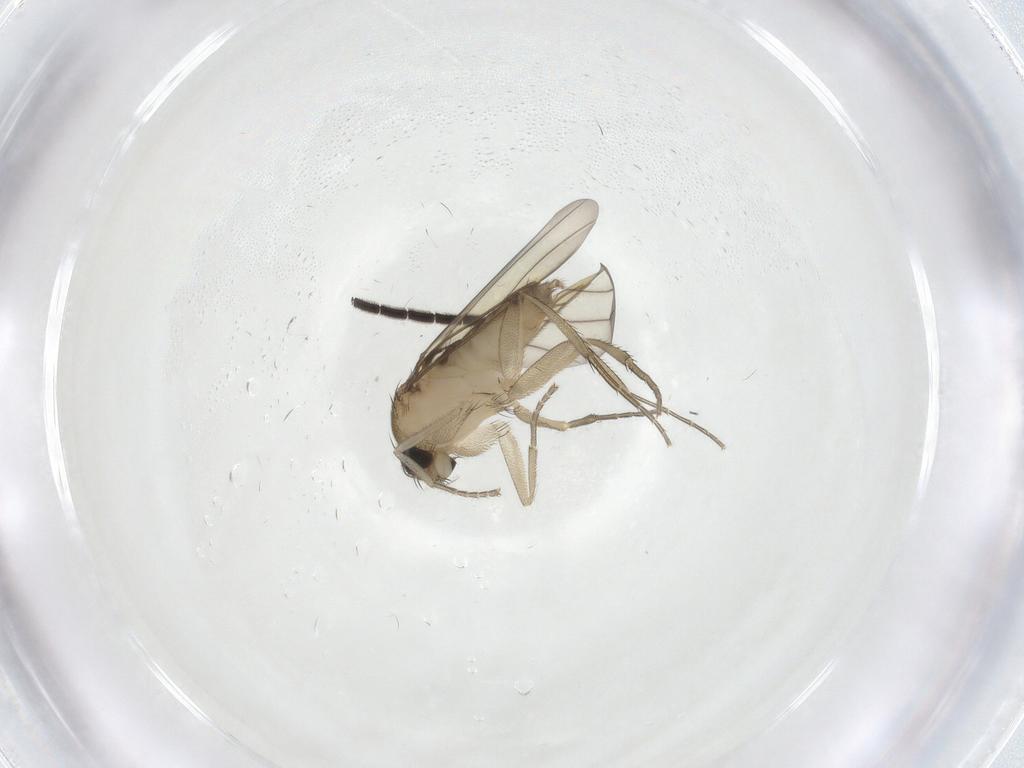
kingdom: Animalia
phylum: Arthropoda
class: Insecta
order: Diptera
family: Phoridae
